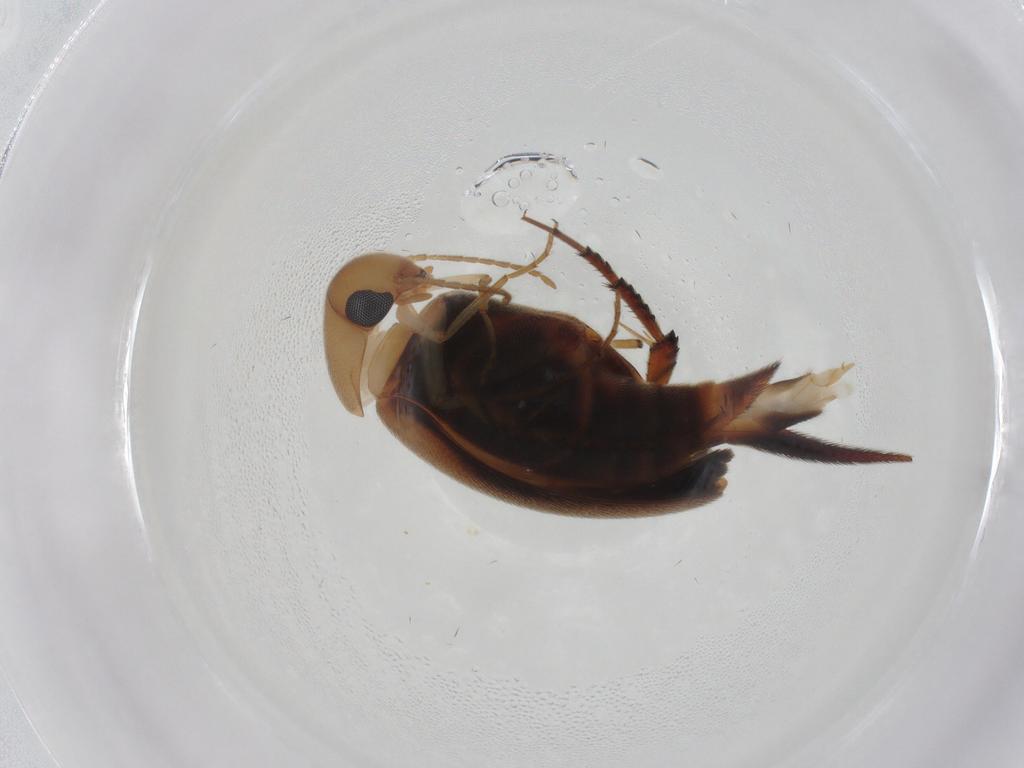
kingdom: Animalia
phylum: Arthropoda
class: Insecta
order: Coleoptera
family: Mordellidae
